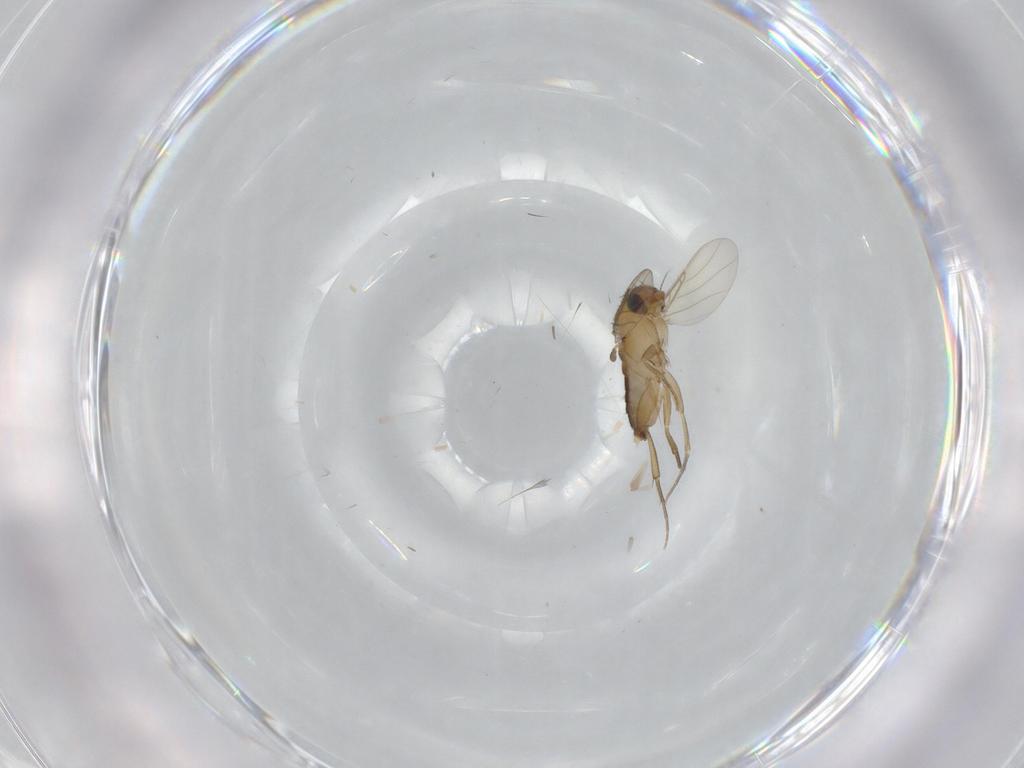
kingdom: Animalia
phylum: Arthropoda
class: Insecta
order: Diptera
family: Phoridae
